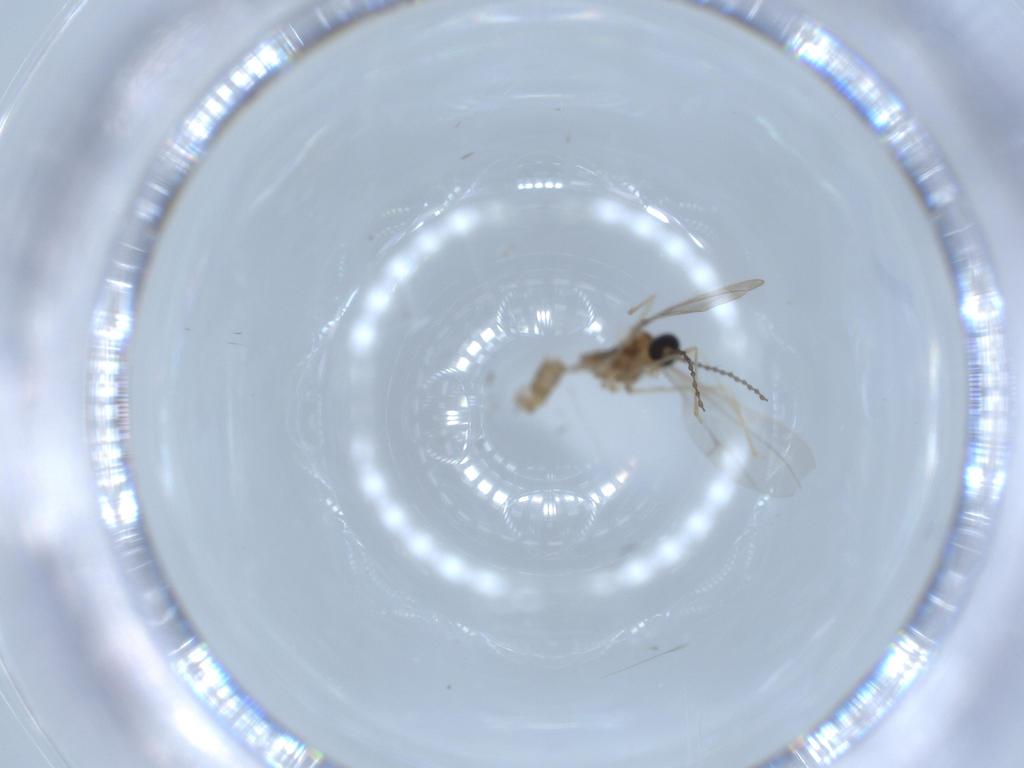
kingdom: Animalia
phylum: Arthropoda
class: Insecta
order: Diptera
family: Cecidomyiidae
